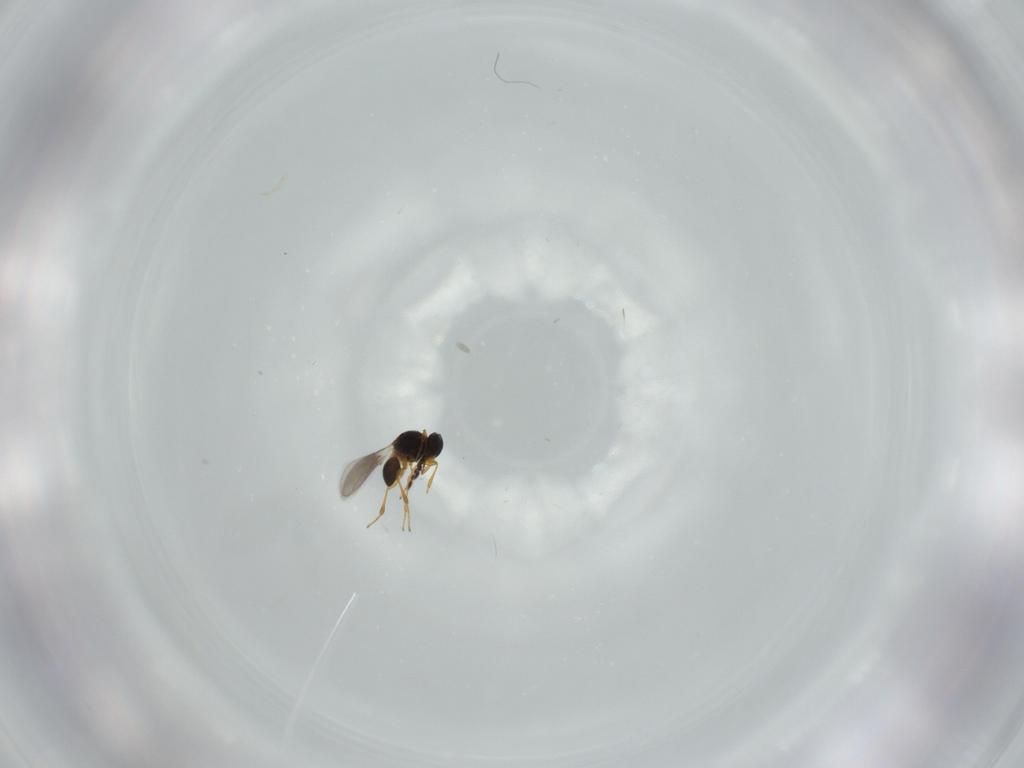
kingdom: Animalia
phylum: Arthropoda
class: Insecta
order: Hymenoptera
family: Platygastridae
